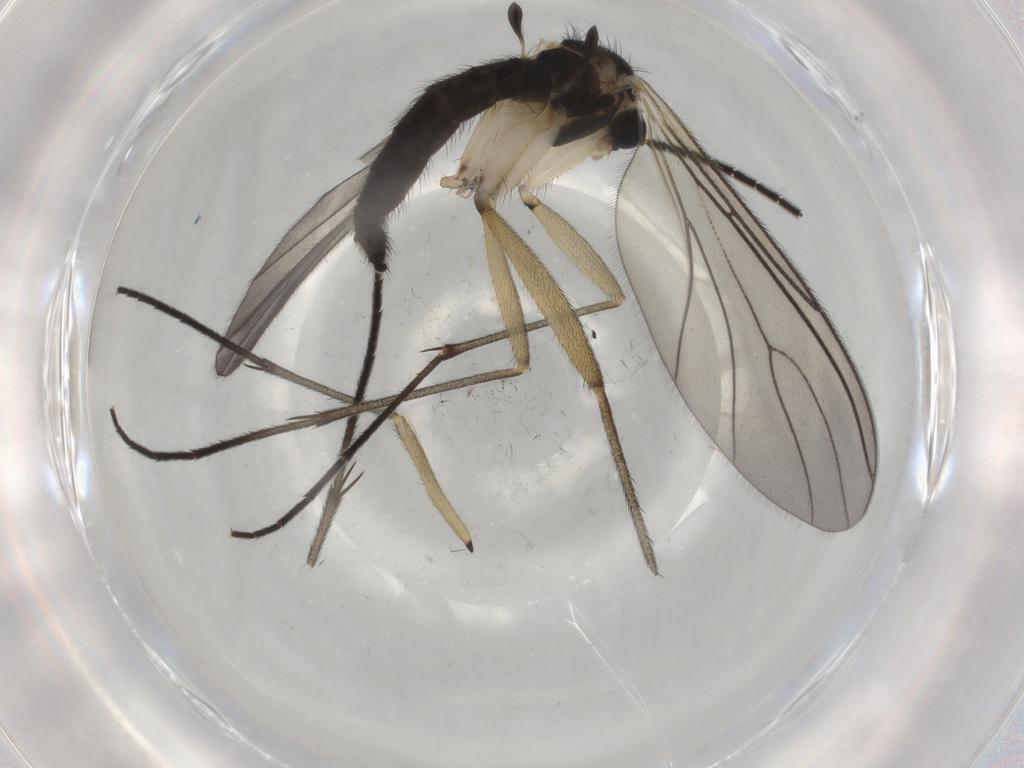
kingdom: Animalia
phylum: Arthropoda
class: Insecta
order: Diptera
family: Sciaridae
